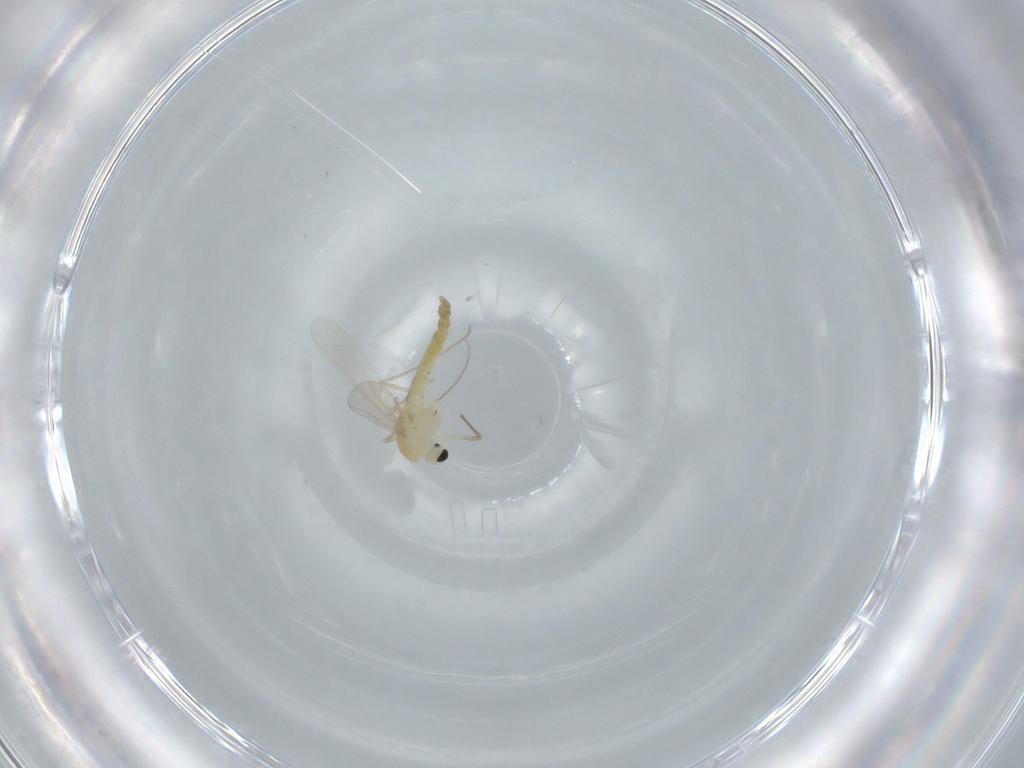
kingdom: Animalia
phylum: Arthropoda
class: Insecta
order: Diptera
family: Chironomidae
